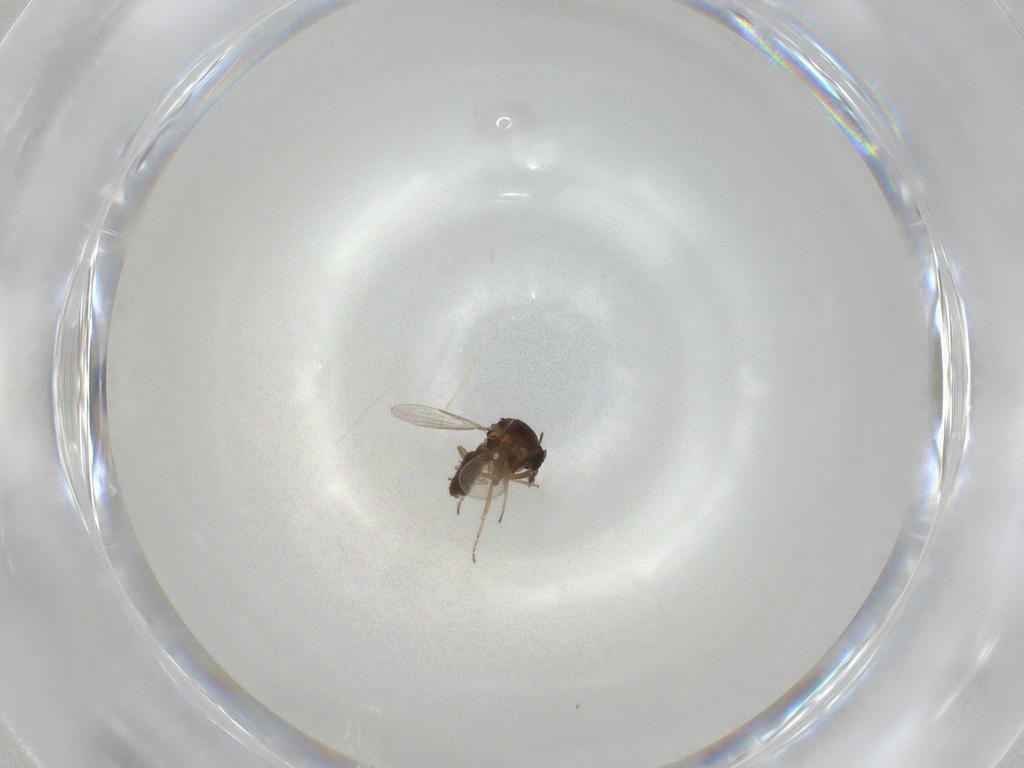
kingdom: Animalia
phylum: Arthropoda
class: Insecta
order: Diptera
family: Ceratopogonidae
